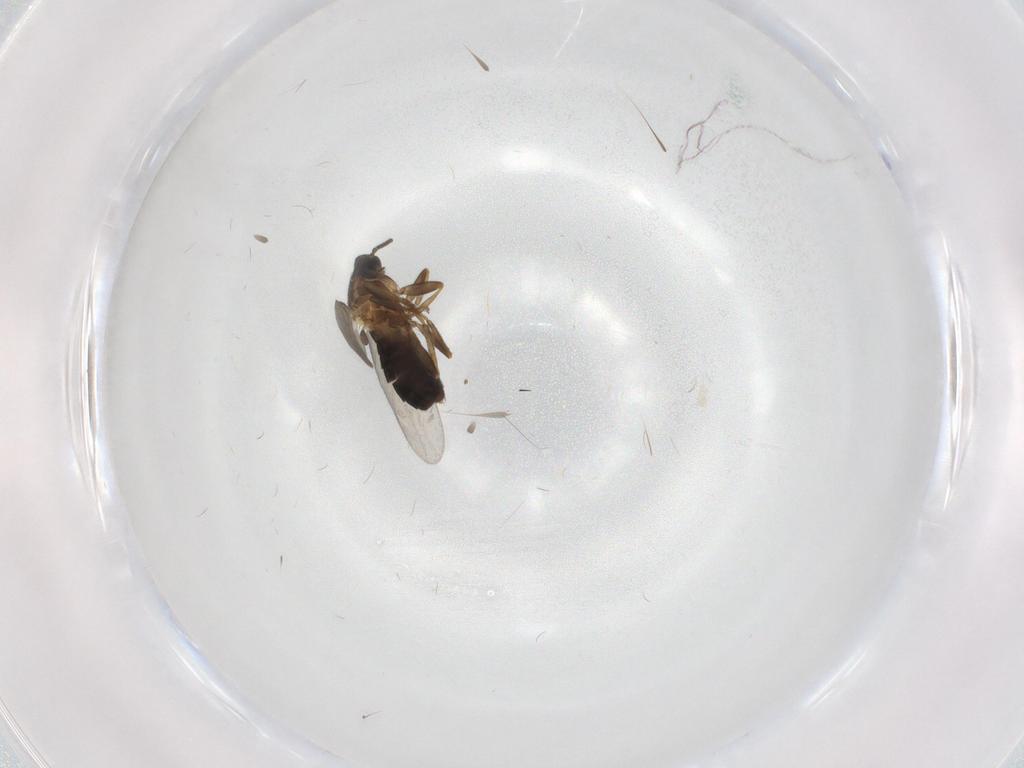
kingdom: Animalia
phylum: Arthropoda
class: Insecta
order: Diptera
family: Scatopsidae
